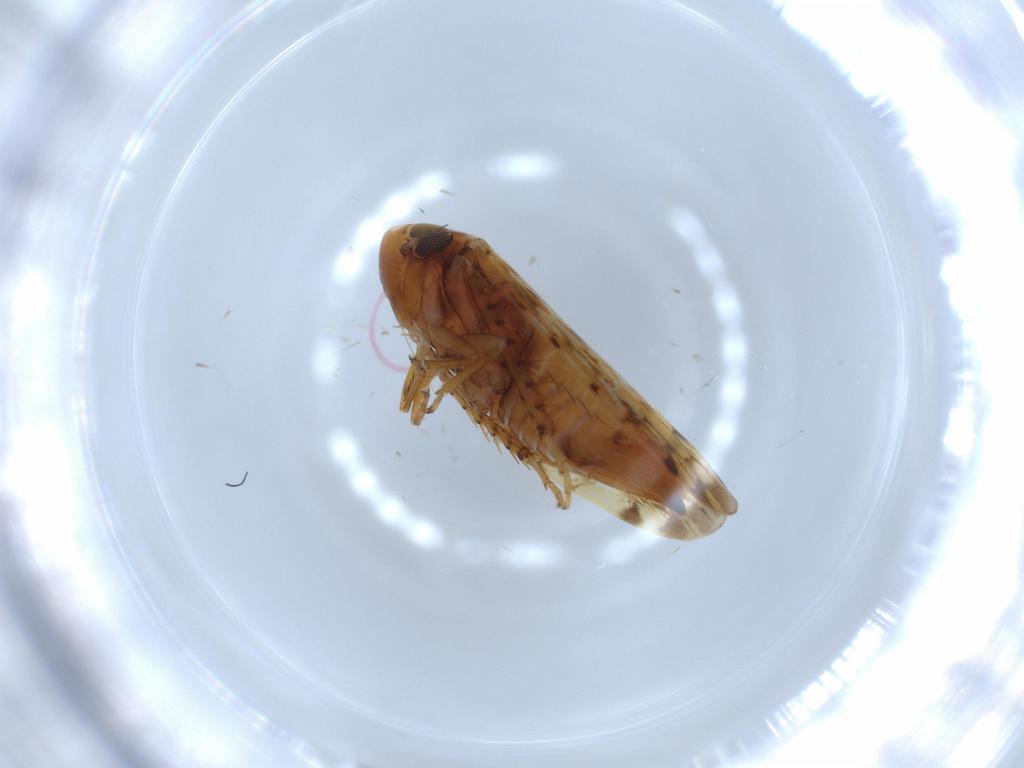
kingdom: Animalia
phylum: Arthropoda
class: Insecta
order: Hemiptera
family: Cicadellidae
